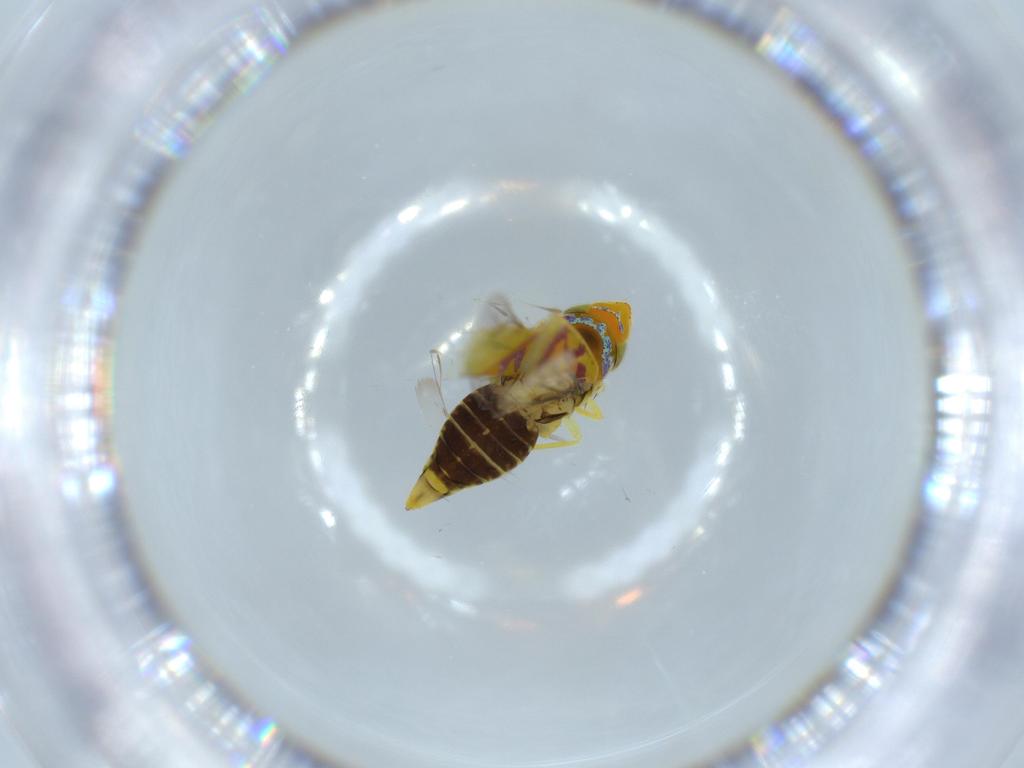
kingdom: Animalia
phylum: Arthropoda
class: Insecta
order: Hemiptera
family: Cicadellidae
